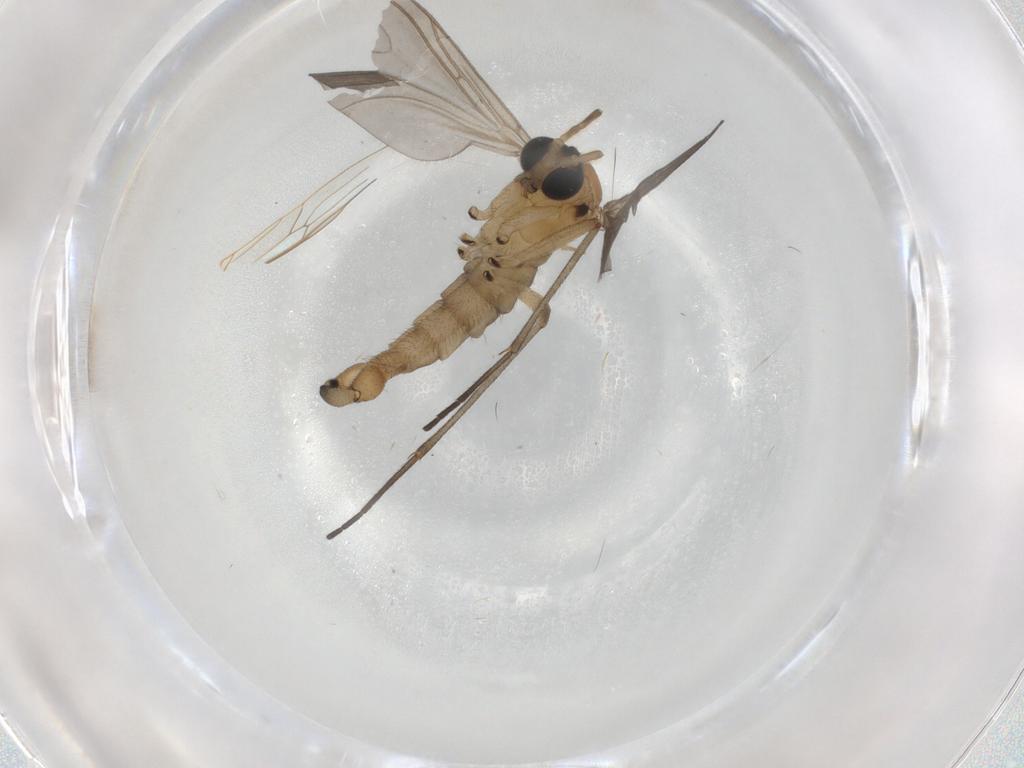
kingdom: Animalia
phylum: Arthropoda
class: Insecta
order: Diptera
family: Sciaridae
